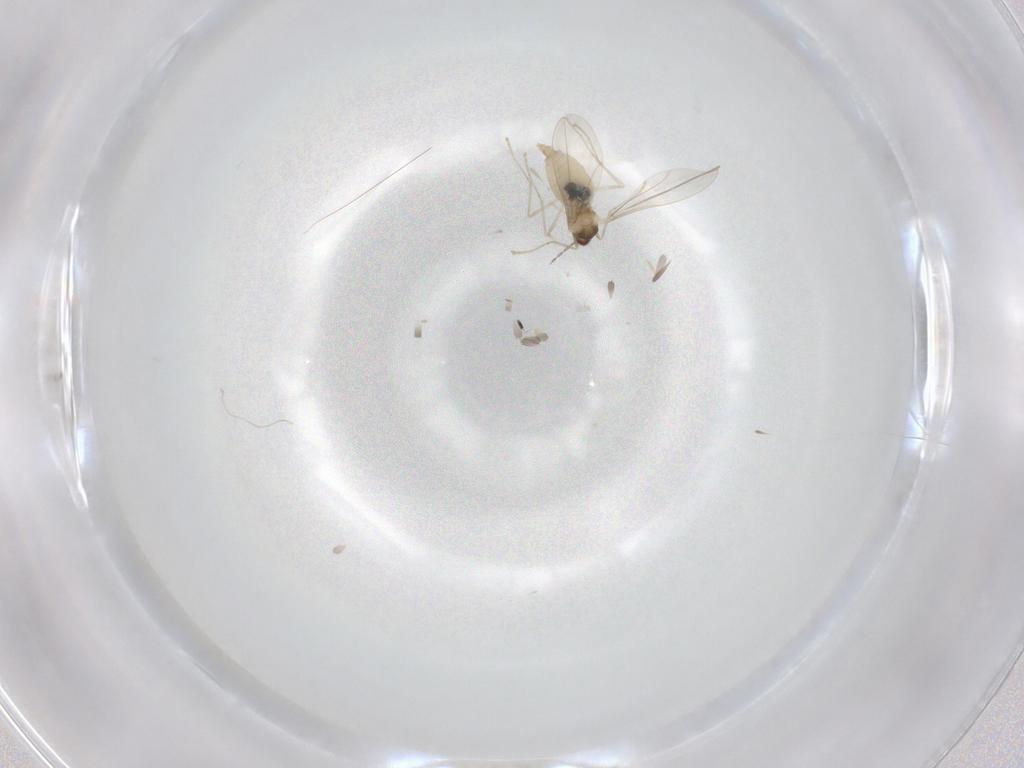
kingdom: Animalia
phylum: Arthropoda
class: Insecta
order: Diptera
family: Cecidomyiidae
